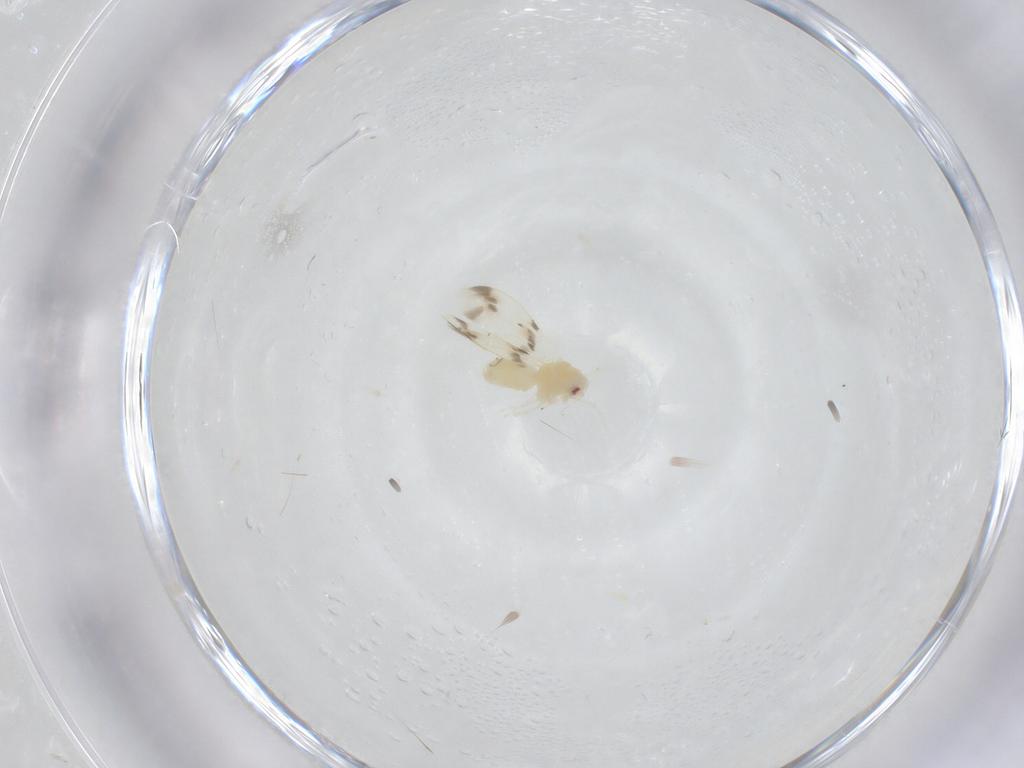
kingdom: Animalia
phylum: Arthropoda
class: Insecta
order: Hemiptera
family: Aleyrodidae
